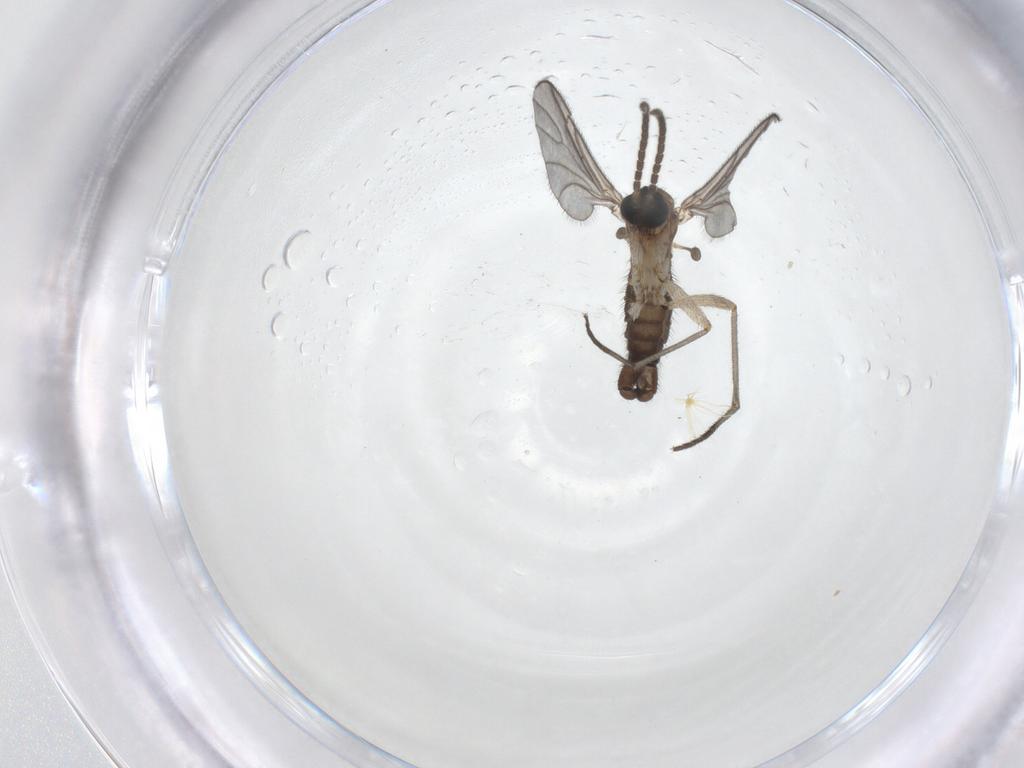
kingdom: Animalia
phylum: Arthropoda
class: Insecta
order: Diptera
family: Sciaridae
